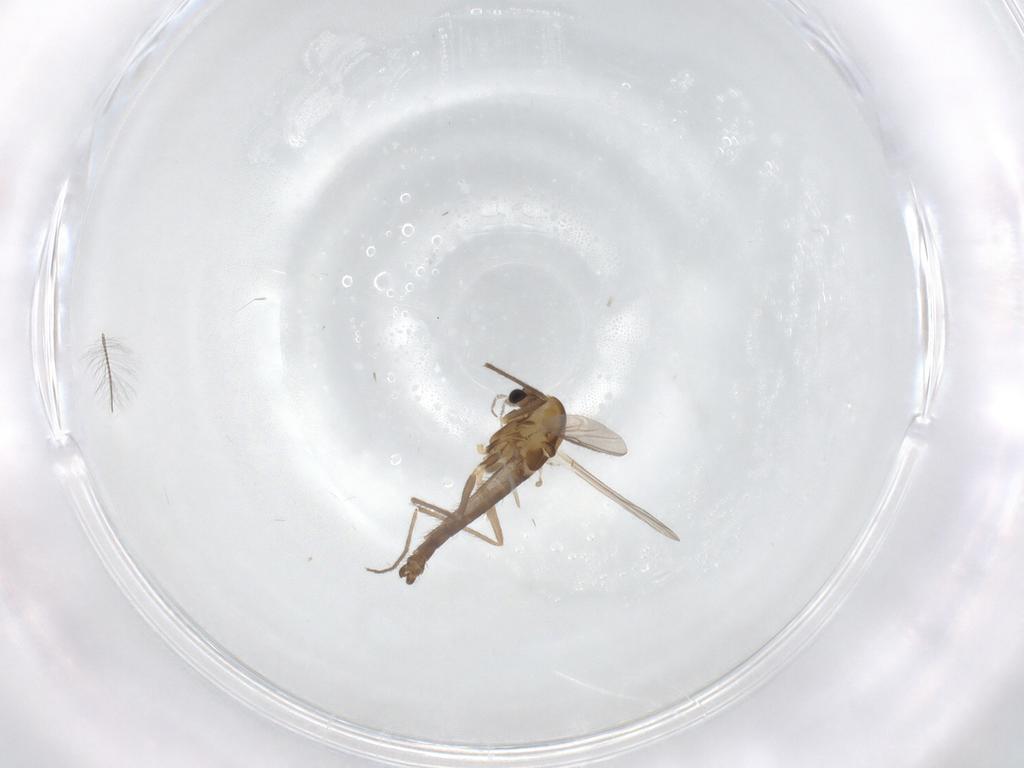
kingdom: Animalia
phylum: Arthropoda
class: Insecta
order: Diptera
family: Chironomidae
